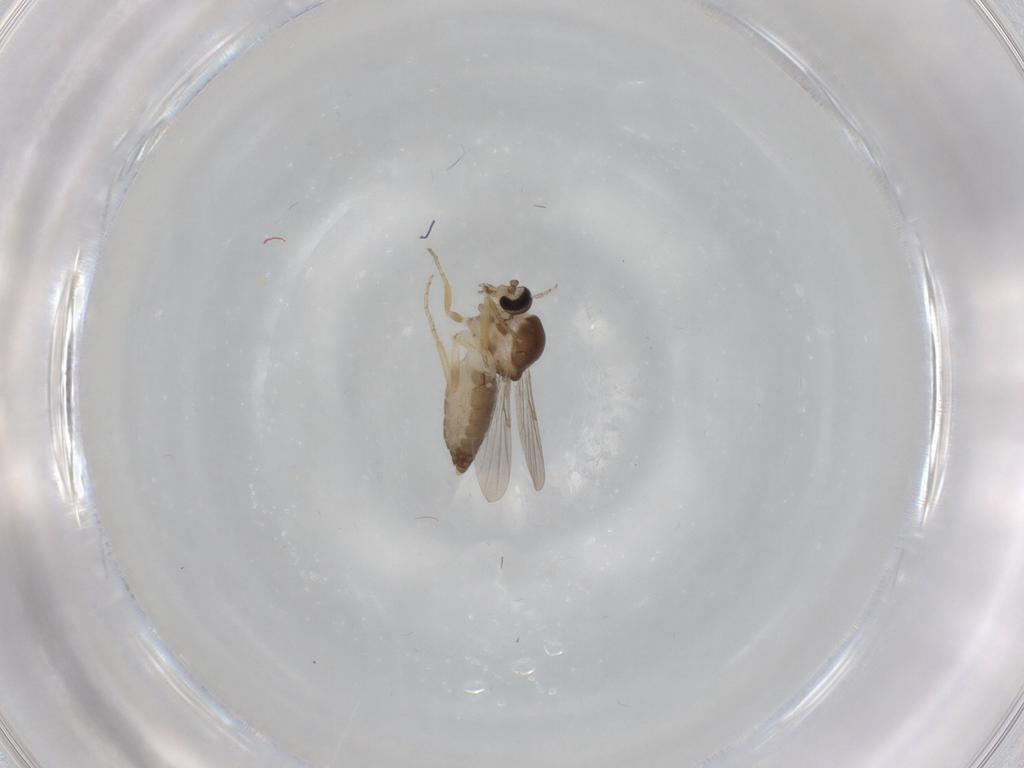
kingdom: Animalia
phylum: Arthropoda
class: Insecta
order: Diptera
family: Ceratopogonidae
